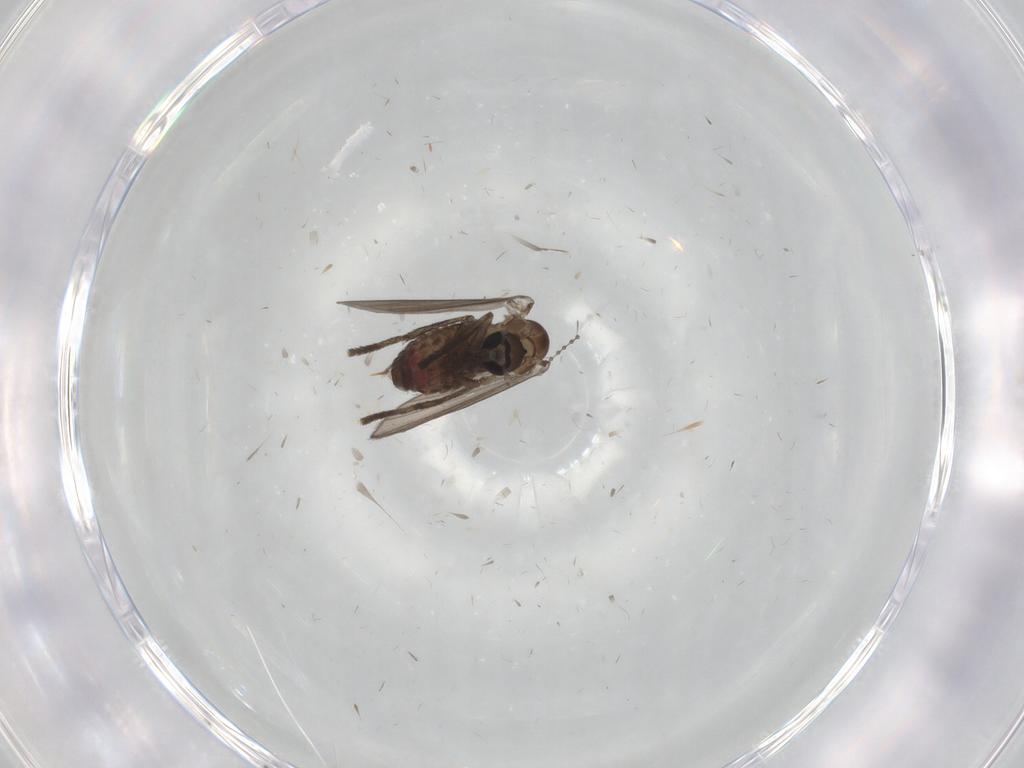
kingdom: Animalia
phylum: Arthropoda
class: Insecta
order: Diptera
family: Psychodidae
